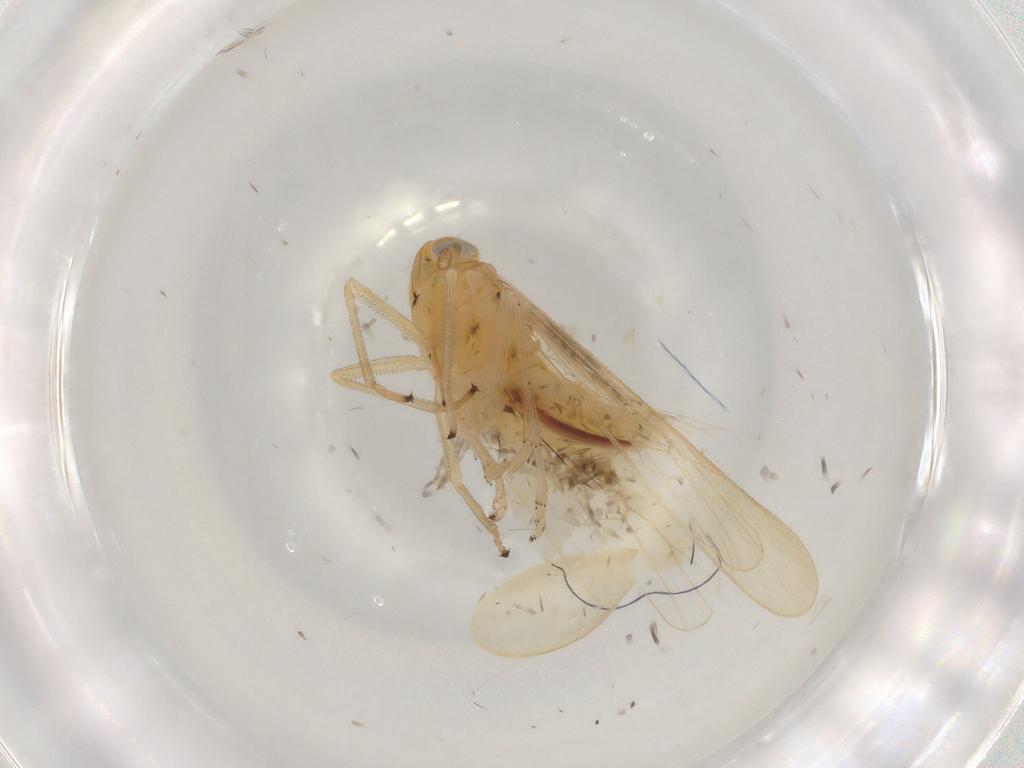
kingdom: Animalia
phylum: Arthropoda
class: Insecta
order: Hemiptera
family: Delphacidae
